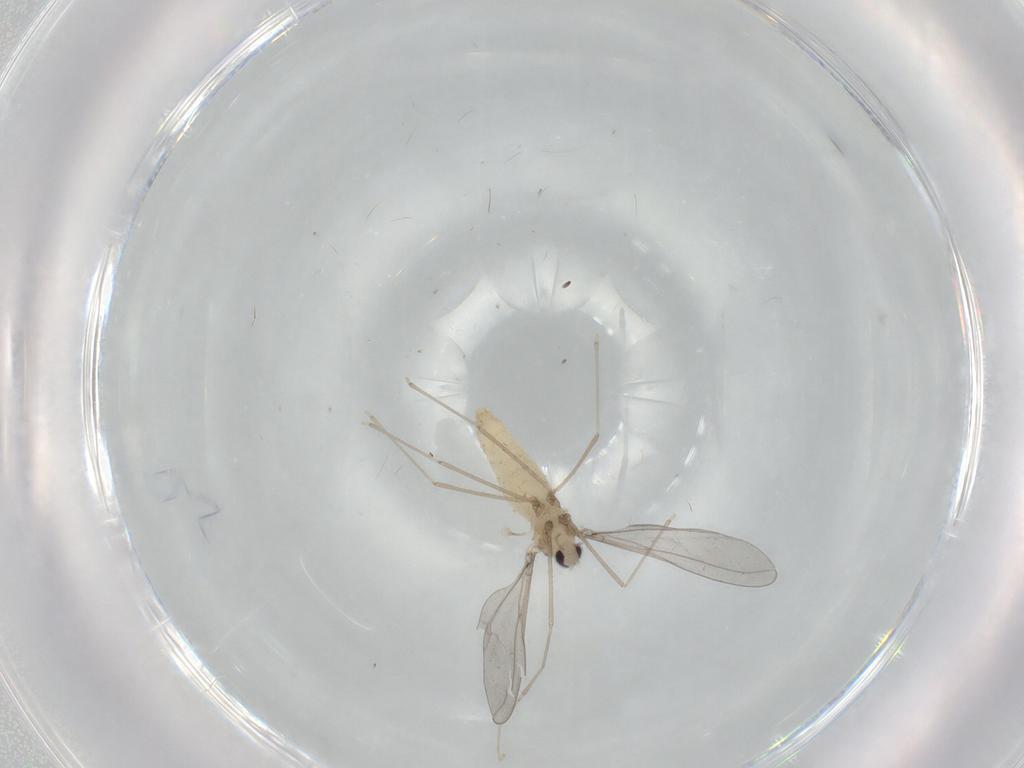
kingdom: Animalia
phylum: Arthropoda
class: Insecta
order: Diptera
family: Cecidomyiidae
